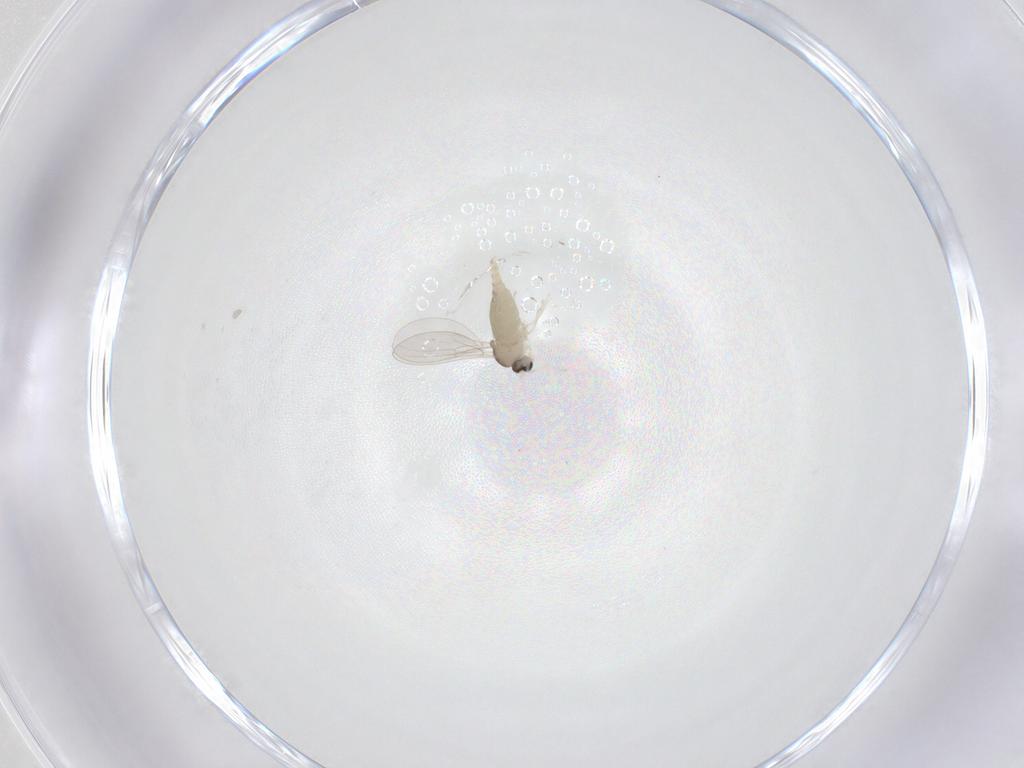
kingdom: Animalia
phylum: Arthropoda
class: Insecta
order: Diptera
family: Cecidomyiidae
